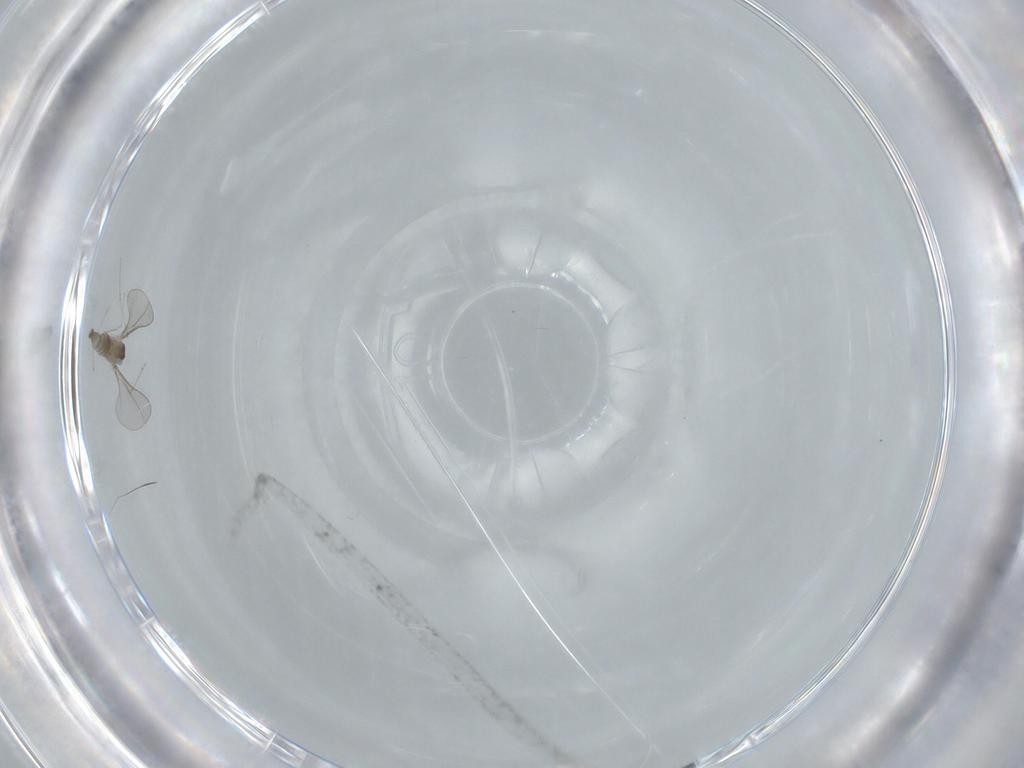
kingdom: Animalia
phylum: Arthropoda
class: Insecta
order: Diptera
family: Cecidomyiidae
